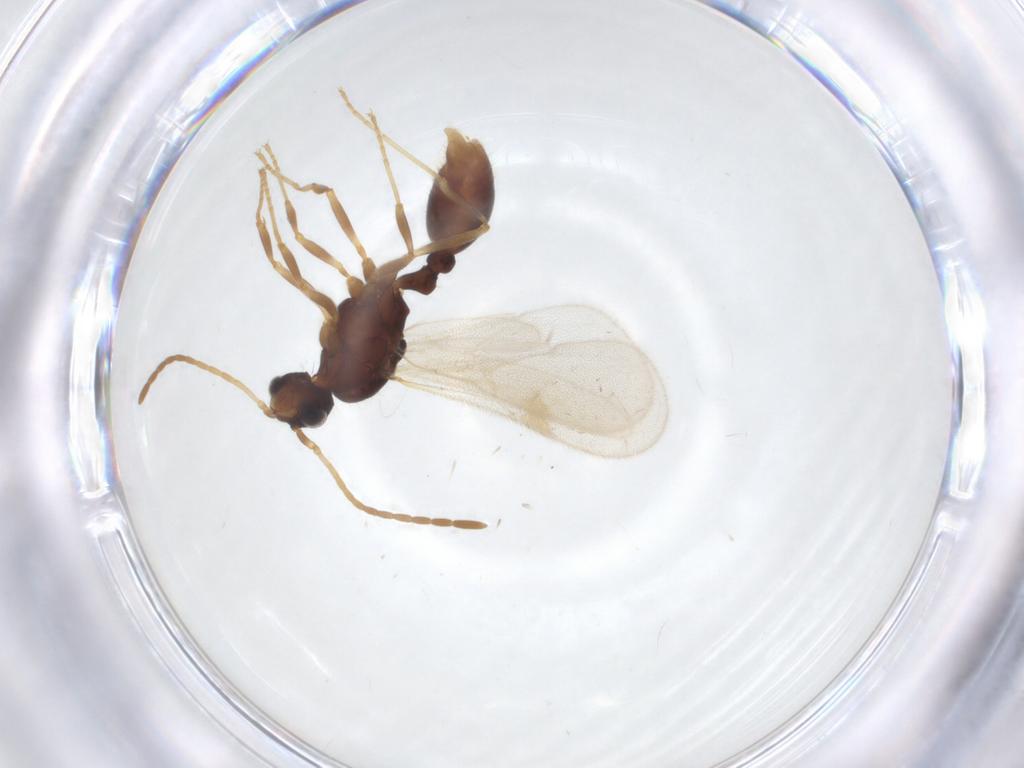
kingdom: Animalia
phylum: Arthropoda
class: Insecta
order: Hymenoptera
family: Formicidae
